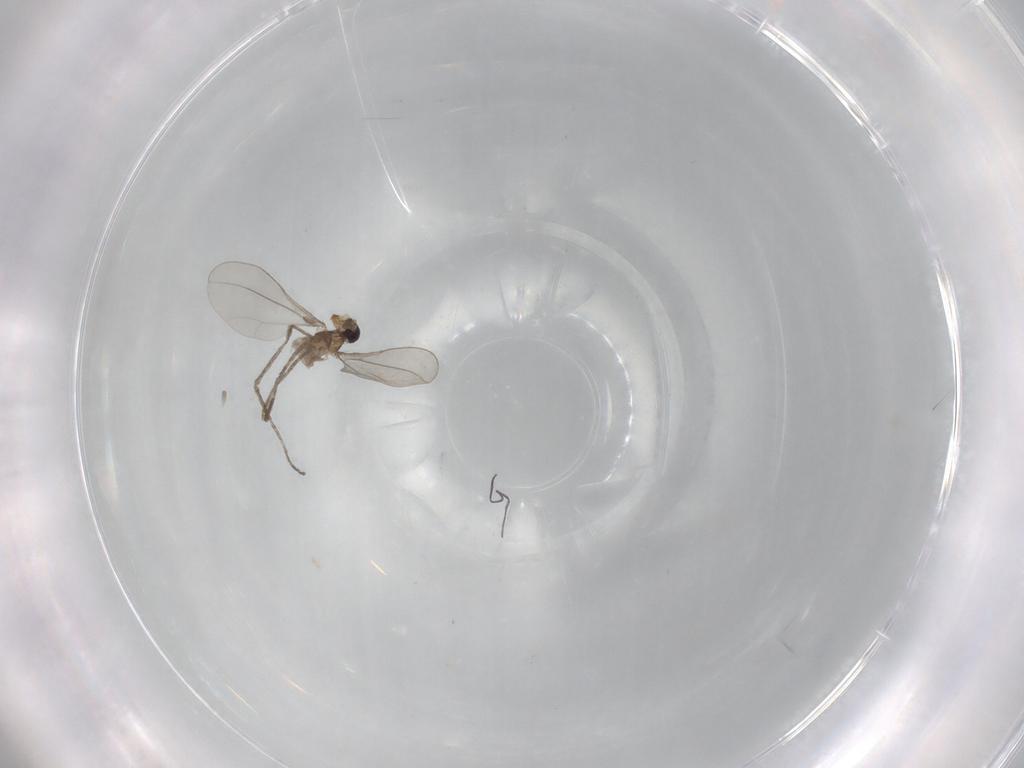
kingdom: Animalia
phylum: Arthropoda
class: Insecta
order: Diptera
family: Cecidomyiidae
